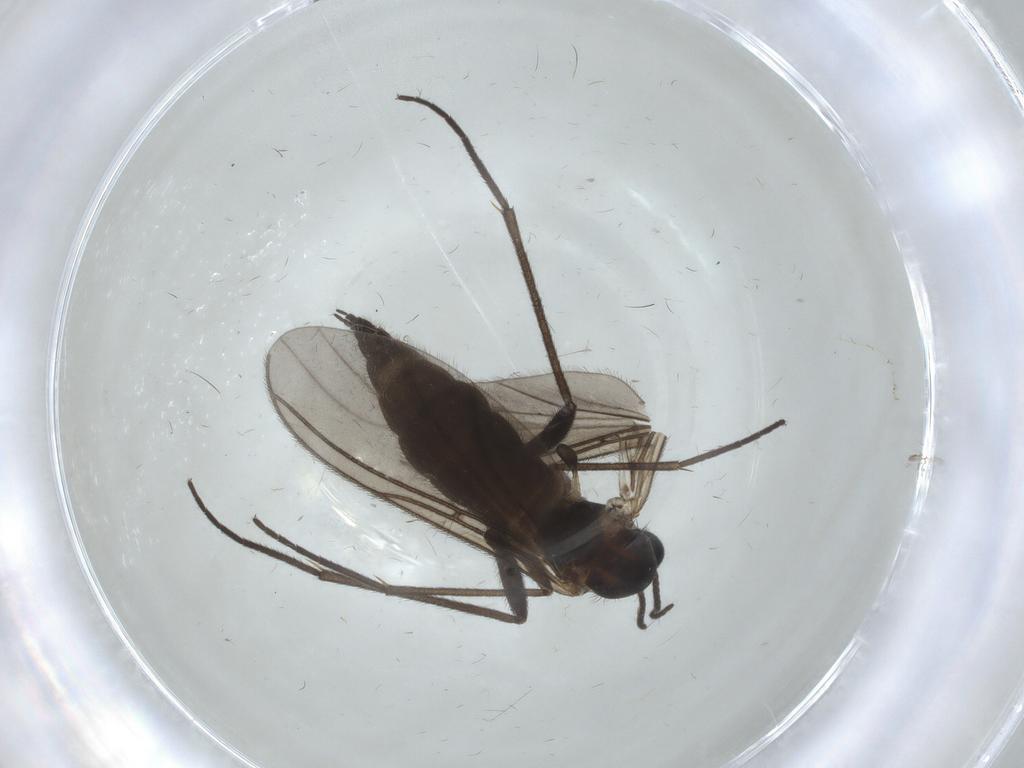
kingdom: Animalia
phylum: Arthropoda
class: Insecta
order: Diptera
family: Sciaridae
